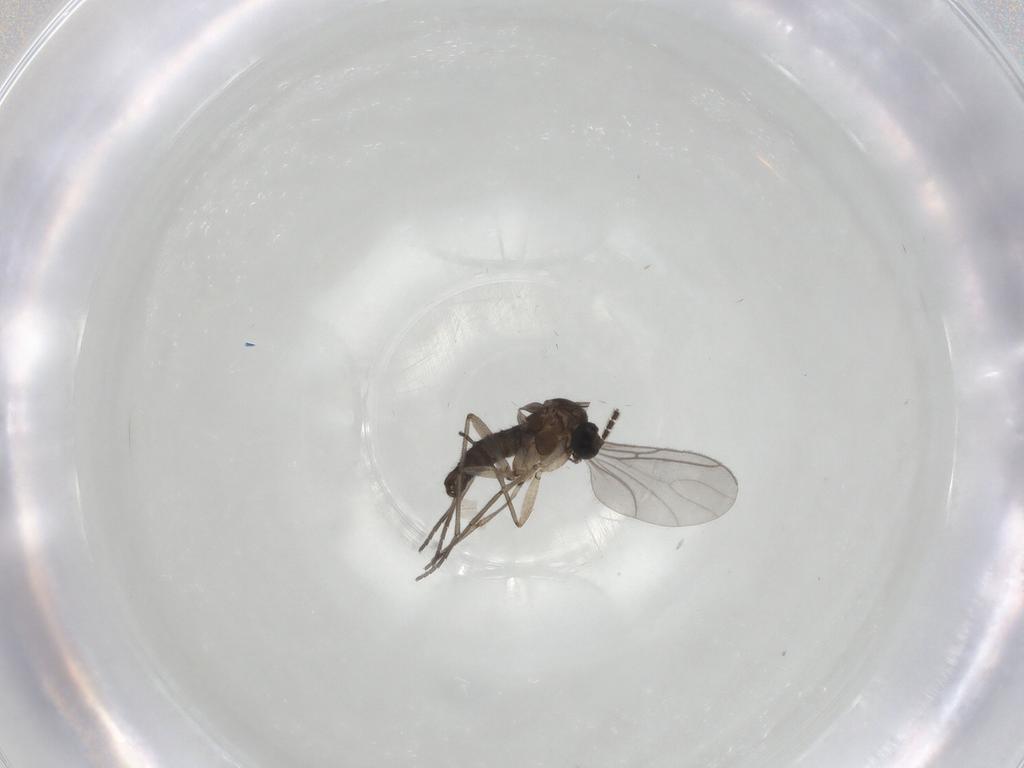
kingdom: Animalia
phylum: Arthropoda
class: Insecta
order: Diptera
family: Sciaridae
